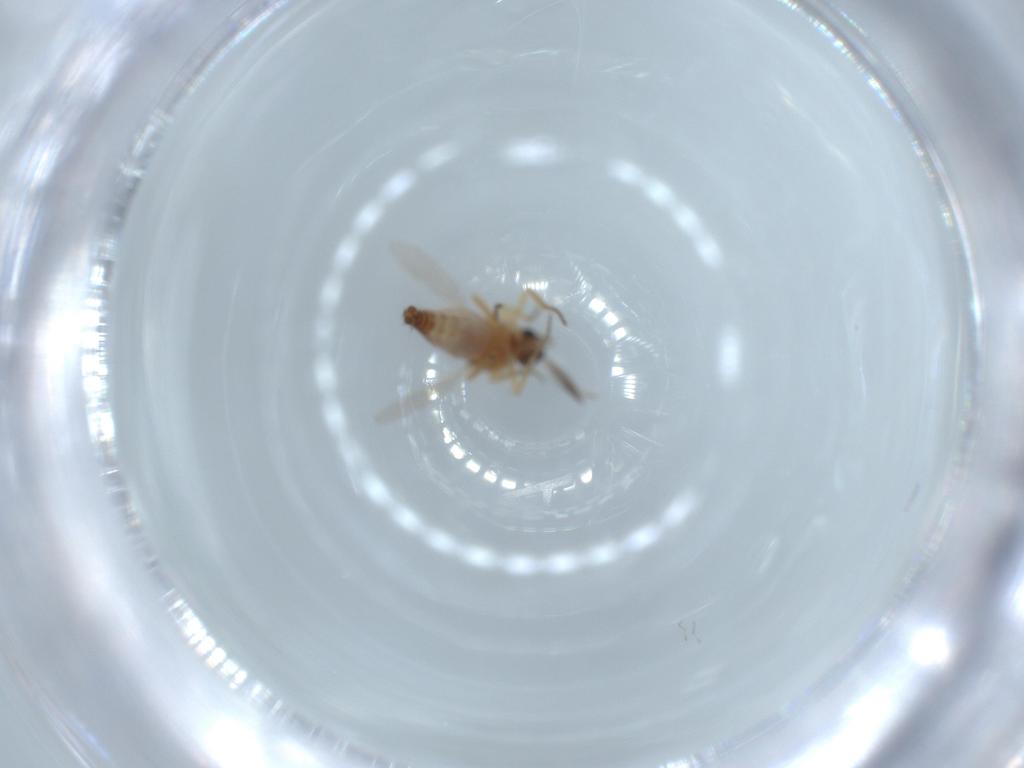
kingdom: Animalia
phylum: Arthropoda
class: Insecta
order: Diptera
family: Ceratopogonidae
